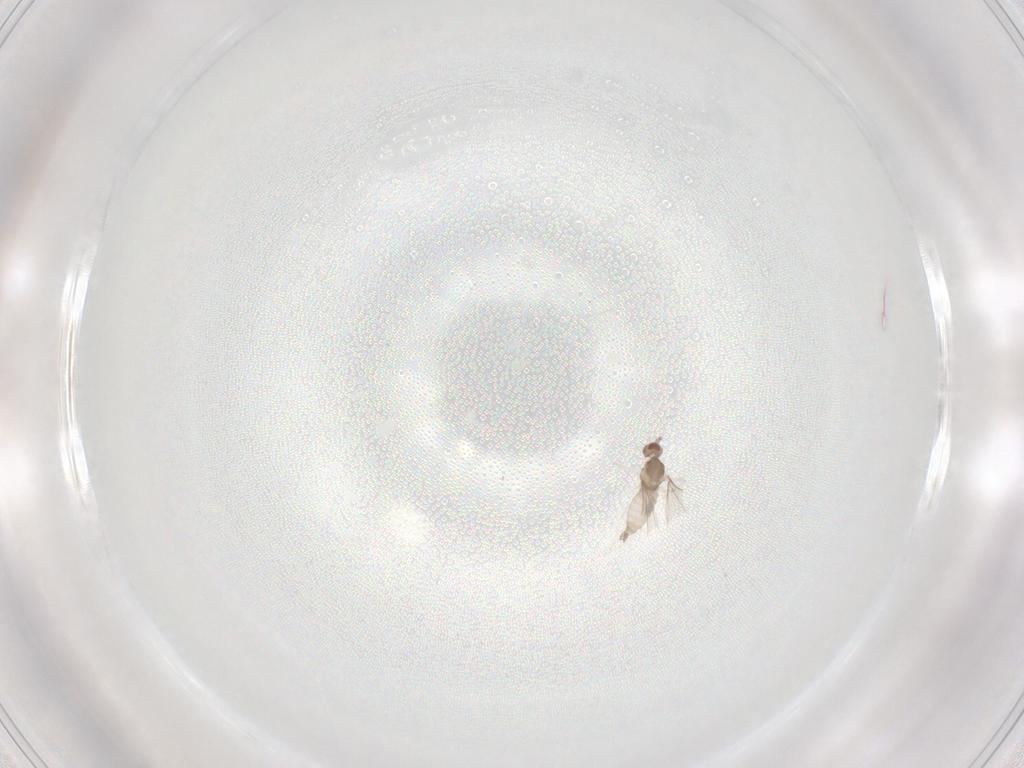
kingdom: Animalia
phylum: Arthropoda
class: Insecta
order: Diptera
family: Cecidomyiidae
